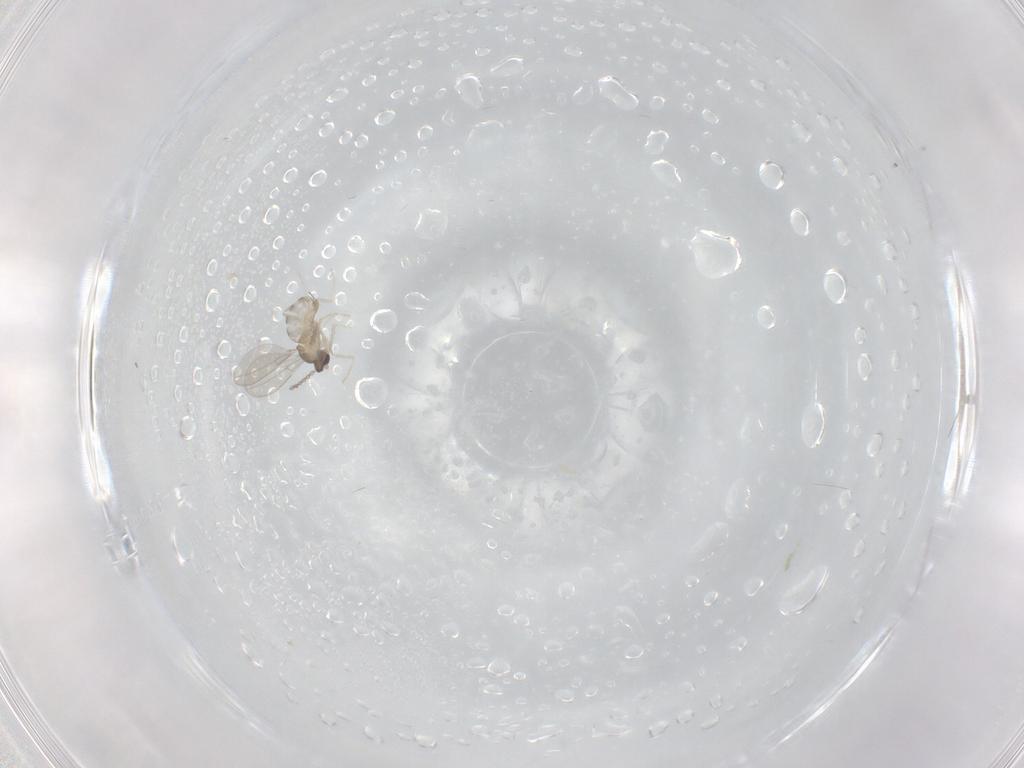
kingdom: Animalia
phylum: Arthropoda
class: Insecta
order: Diptera
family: Cecidomyiidae
